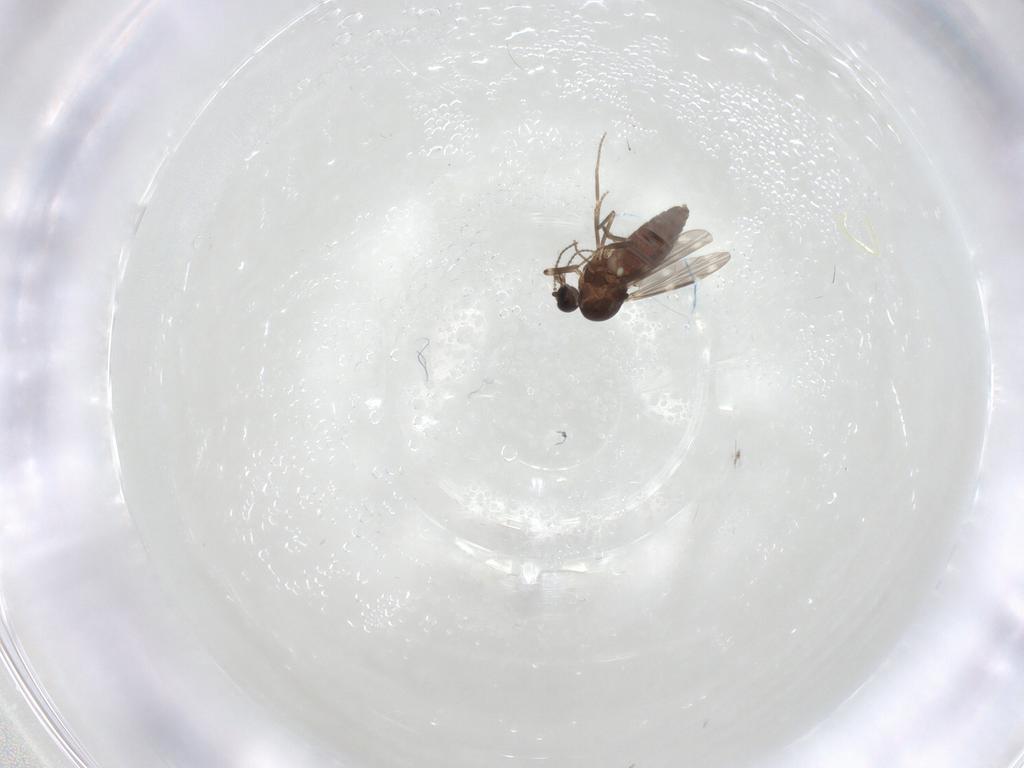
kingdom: Animalia
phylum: Arthropoda
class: Insecta
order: Diptera
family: Ceratopogonidae
